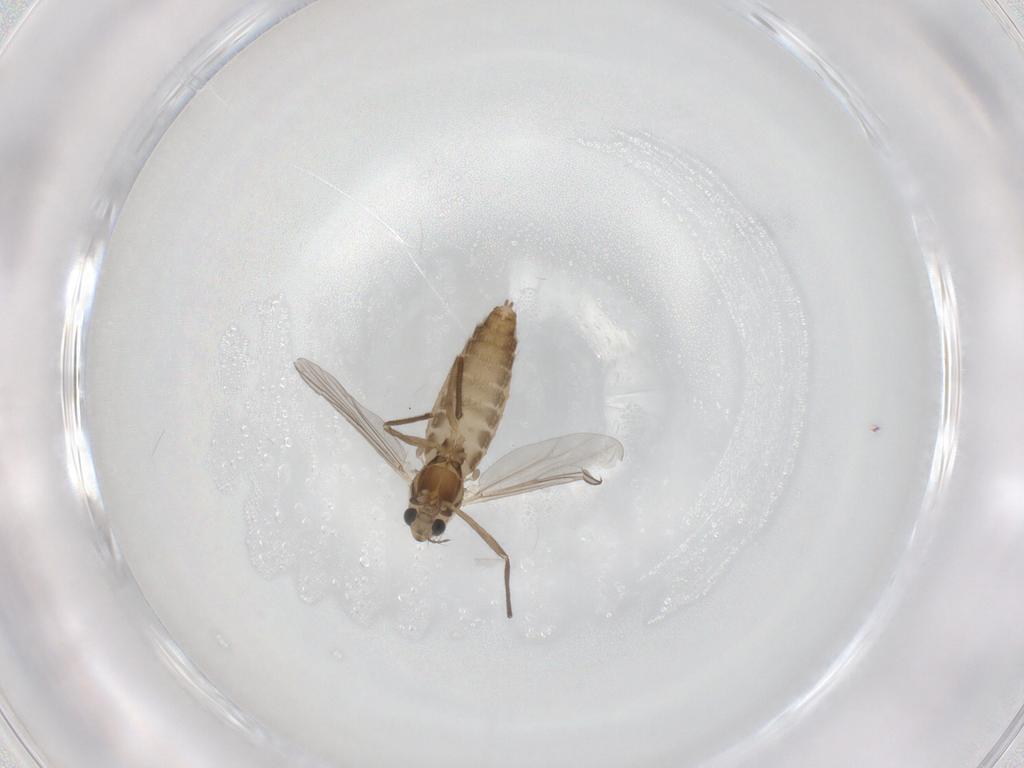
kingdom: Animalia
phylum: Arthropoda
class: Insecta
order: Diptera
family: Chironomidae
